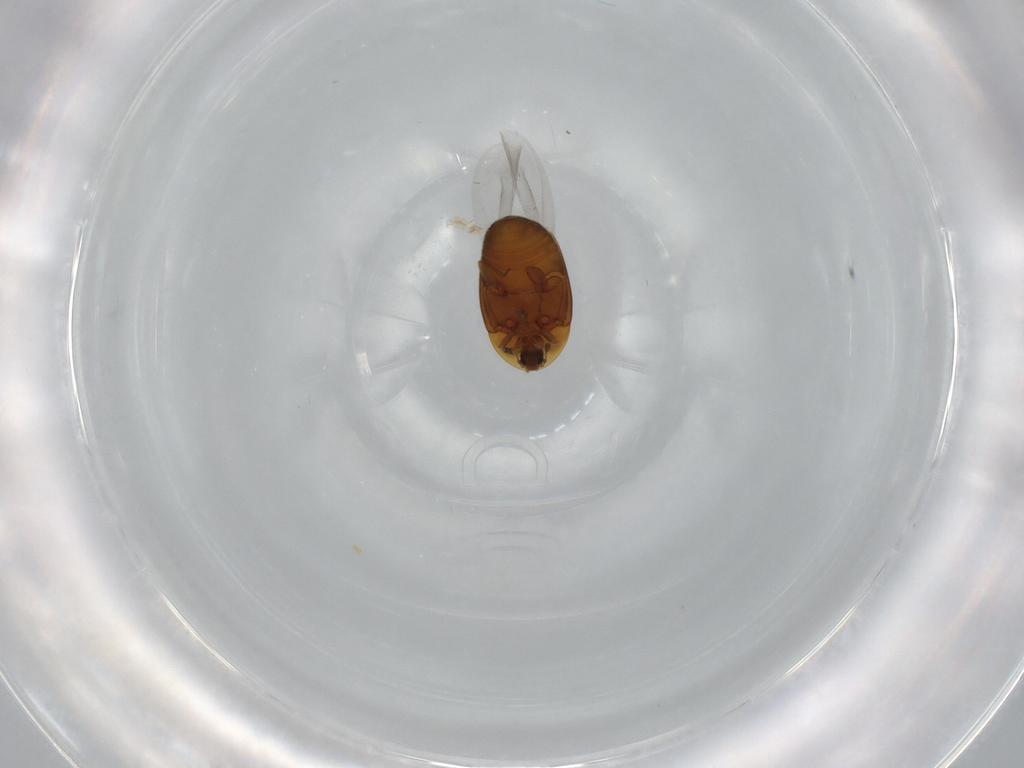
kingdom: Animalia
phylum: Arthropoda
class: Insecta
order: Coleoptera
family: Corylophidae
